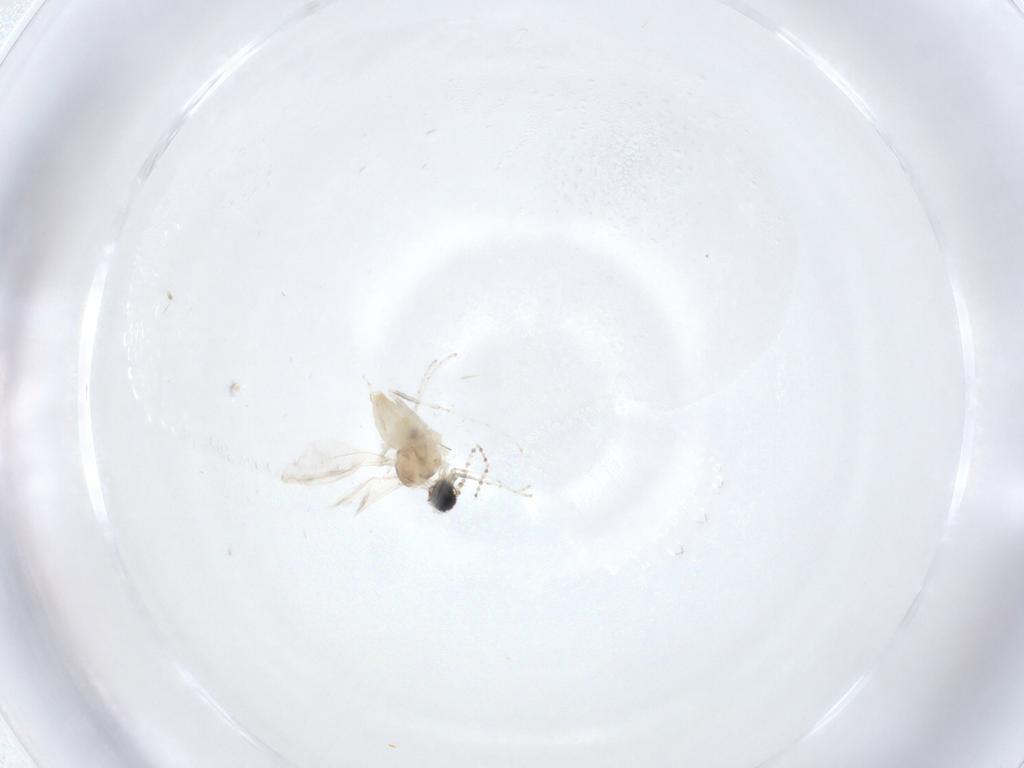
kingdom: Animalia
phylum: Arthropoda
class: Insecta
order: Diptera
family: Cecidomyiidae
